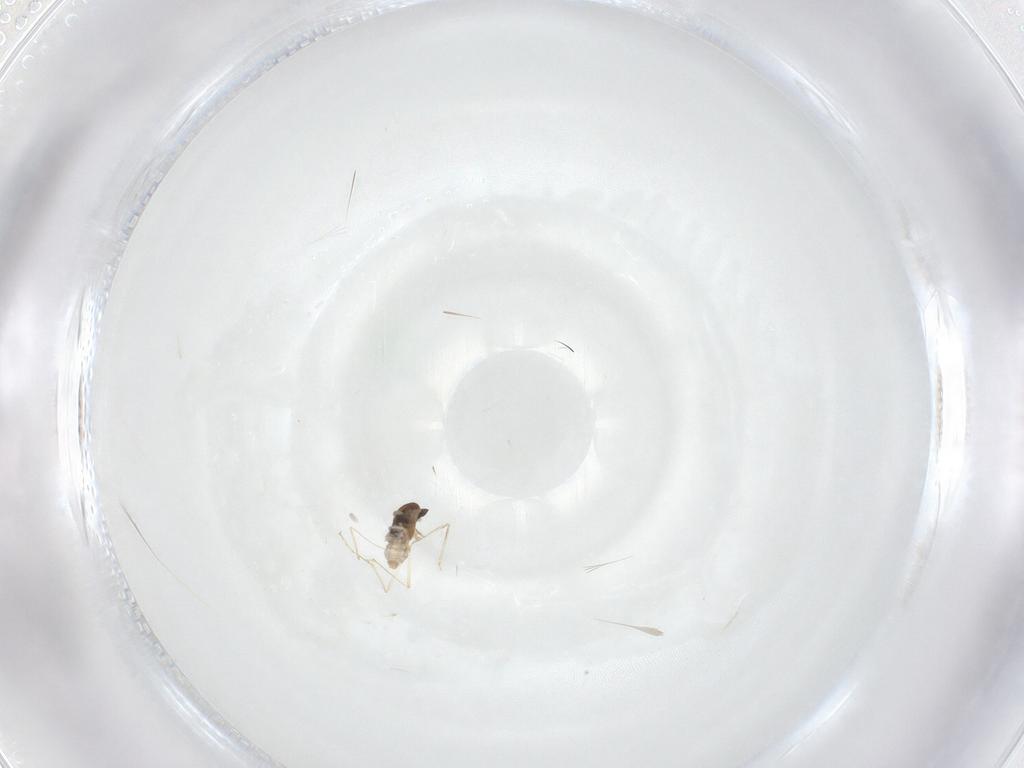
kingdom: Animalia
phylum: Arthropoda
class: Insecta
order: Diptera
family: Cecidomyiidae
